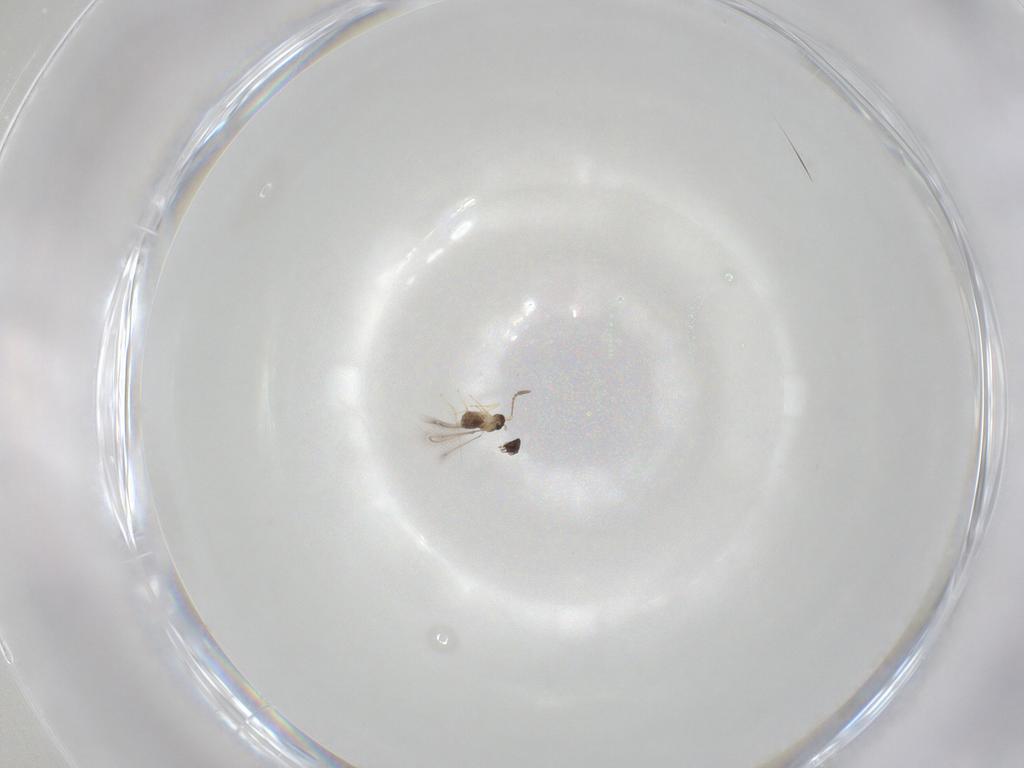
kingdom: Animalia
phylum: Arthropoda
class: Insecta
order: Hymenoptera
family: Mymaridae
